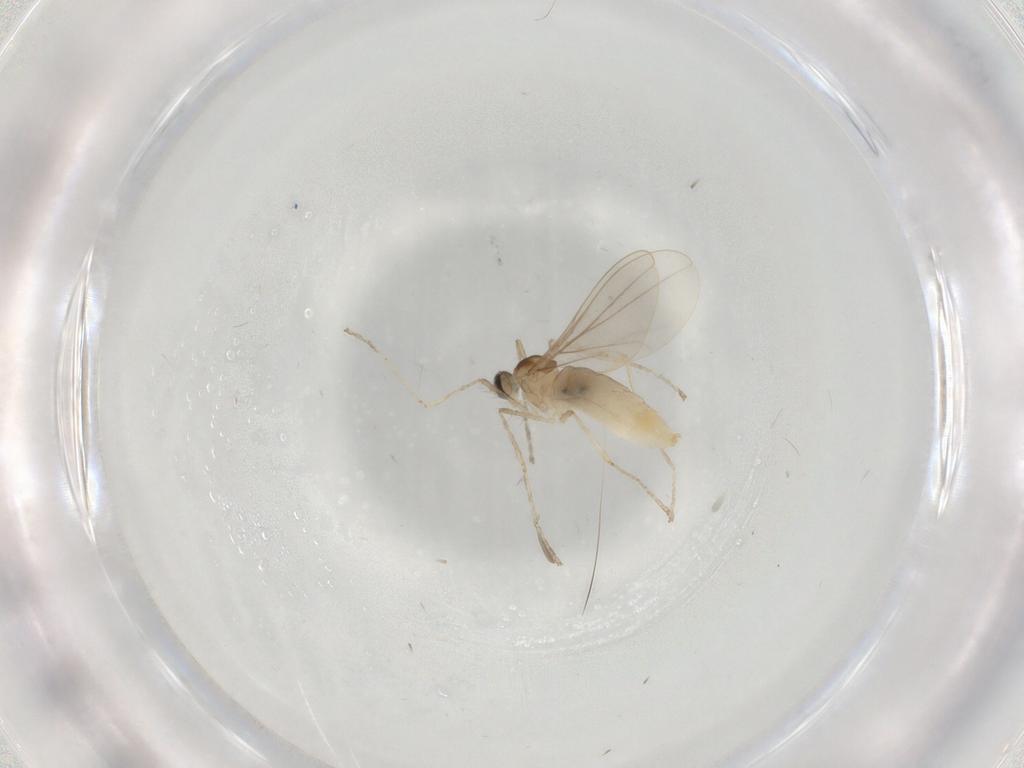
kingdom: Animalia
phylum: Arthropoda
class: Insecta
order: Diptera
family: Cecidomyiidae
